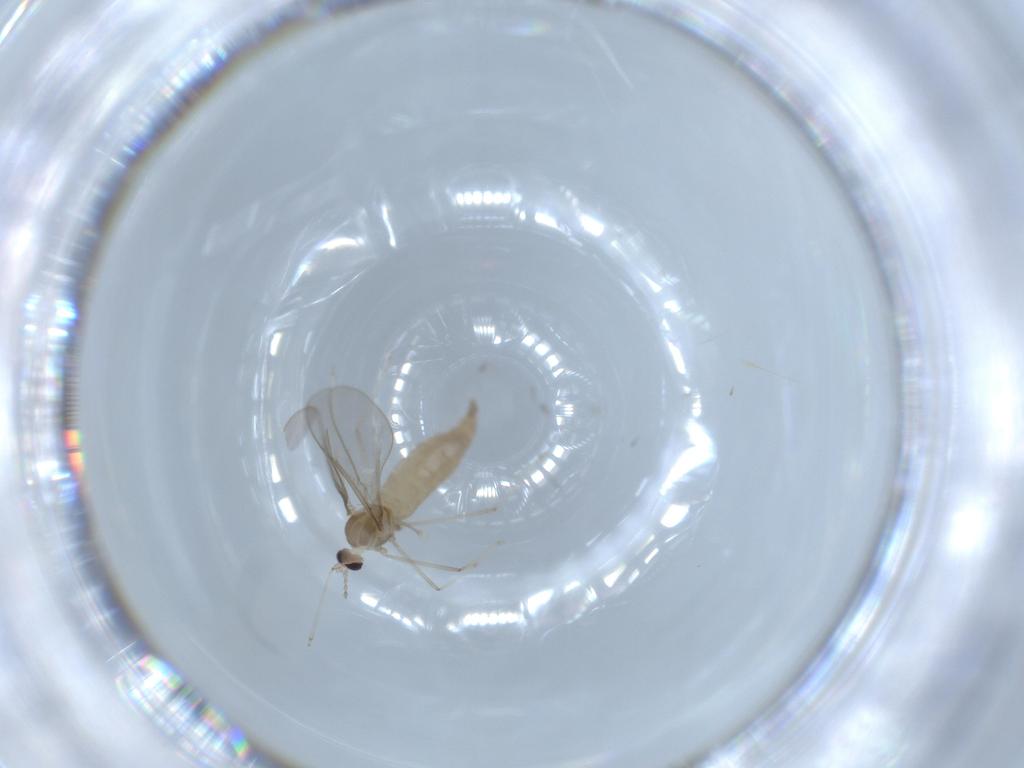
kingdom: Animalia
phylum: Arthropoda
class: Insecta
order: Diptera
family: Cecidomyiidae
